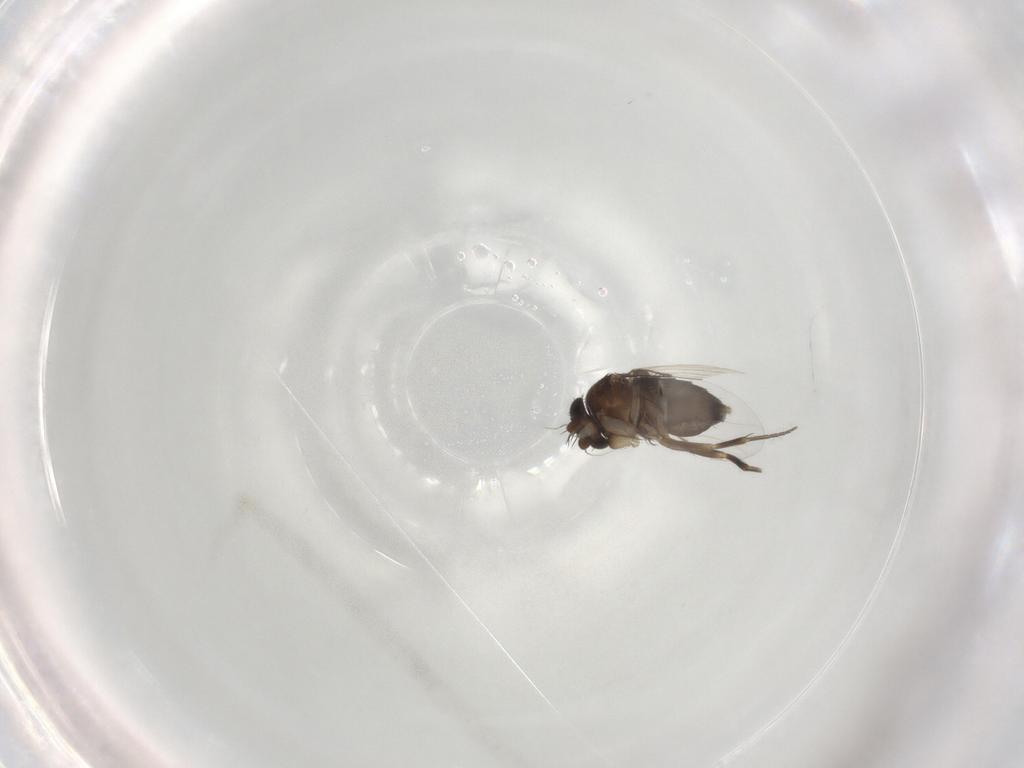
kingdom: Animalia
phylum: Arthropoda
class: Insecta
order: Diptera
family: Phoridae
